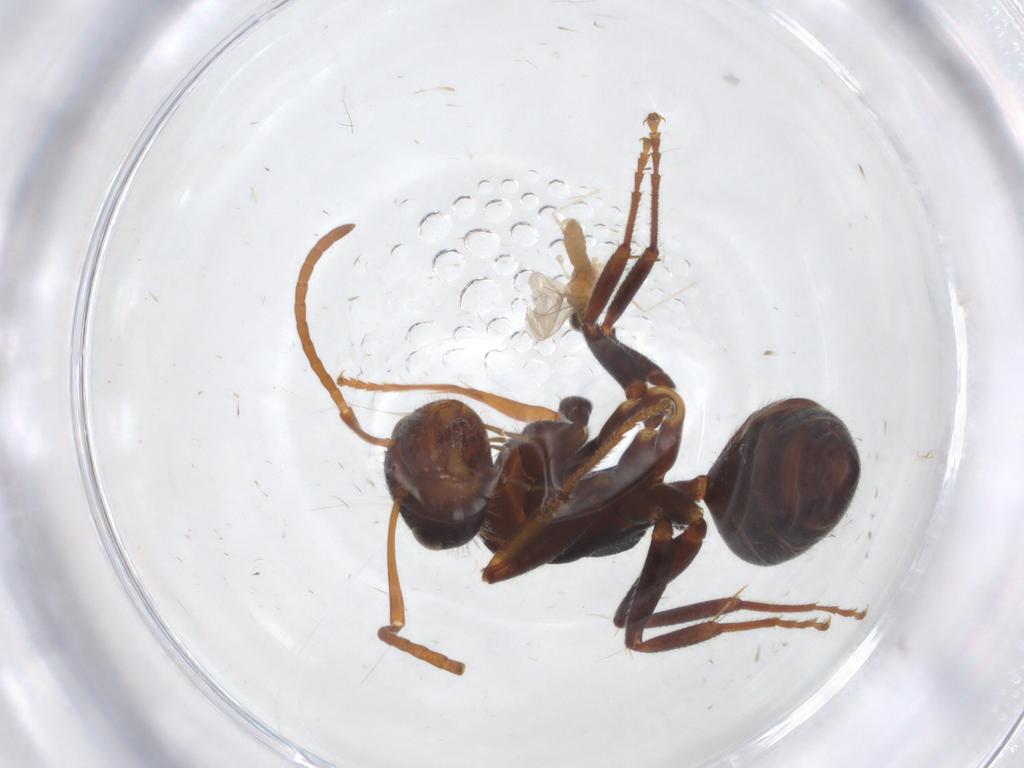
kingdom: Animalia
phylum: Arthropoda
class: Insecta
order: Diptera
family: Cecidomyiidae
